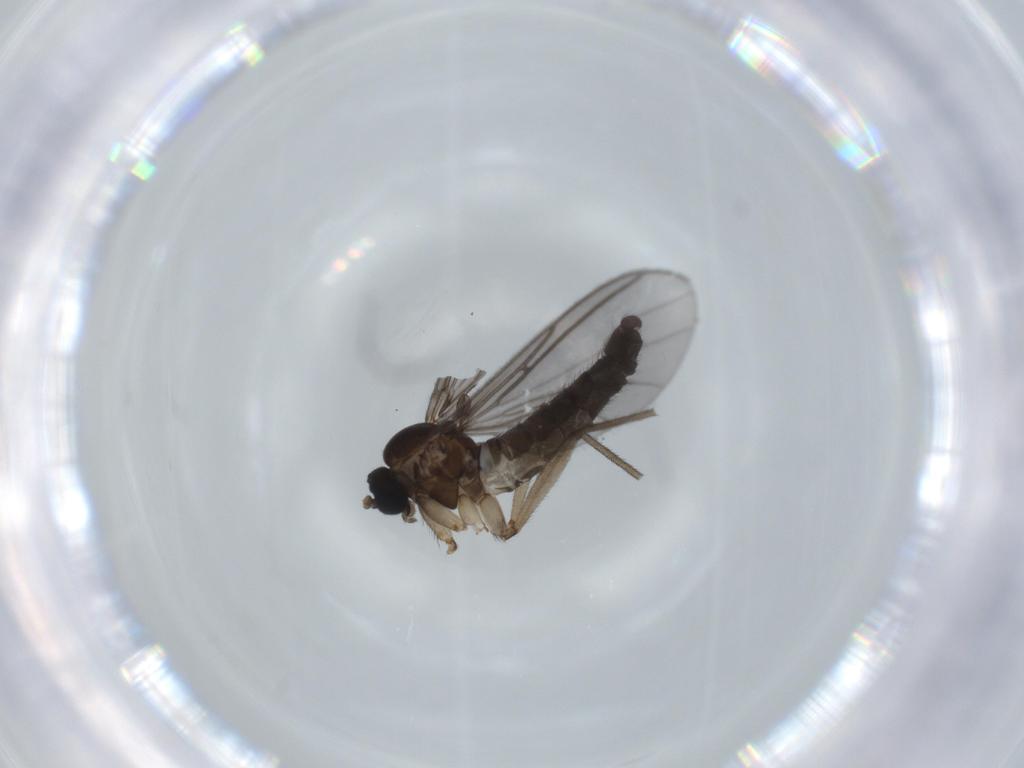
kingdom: Animalia
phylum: Arthropoda
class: Insecta
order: Diptera
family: Sciaridae
